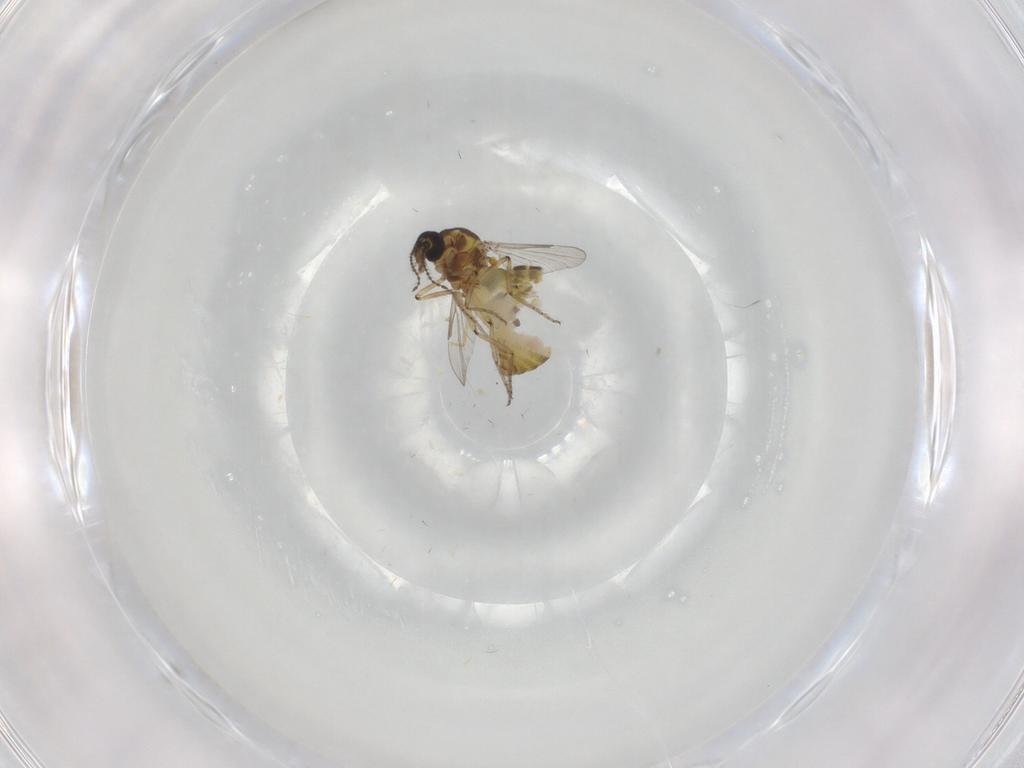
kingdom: Animalia
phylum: Arthropoda
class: Insecta
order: Diptera
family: Ceratopogonidae
